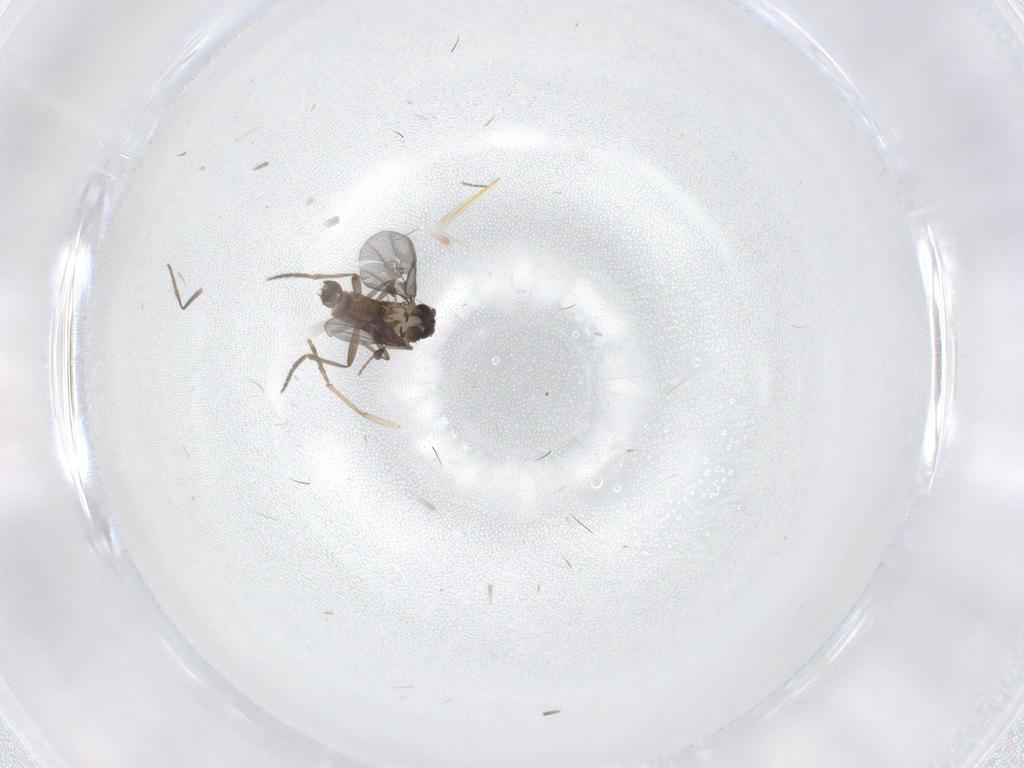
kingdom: Animalia
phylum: Arthropoda
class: Insecta
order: Diptera
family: Phoridae
